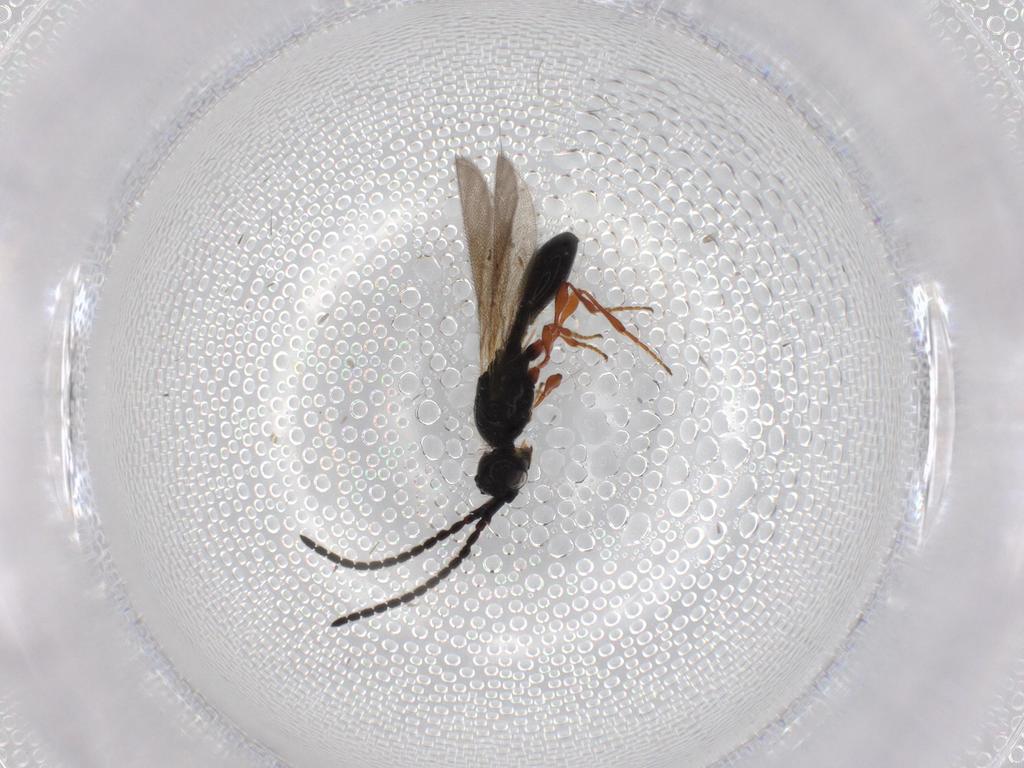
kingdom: Animalia
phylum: Arthropoda
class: Insecta
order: Hymenoptera
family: Diapriidae
